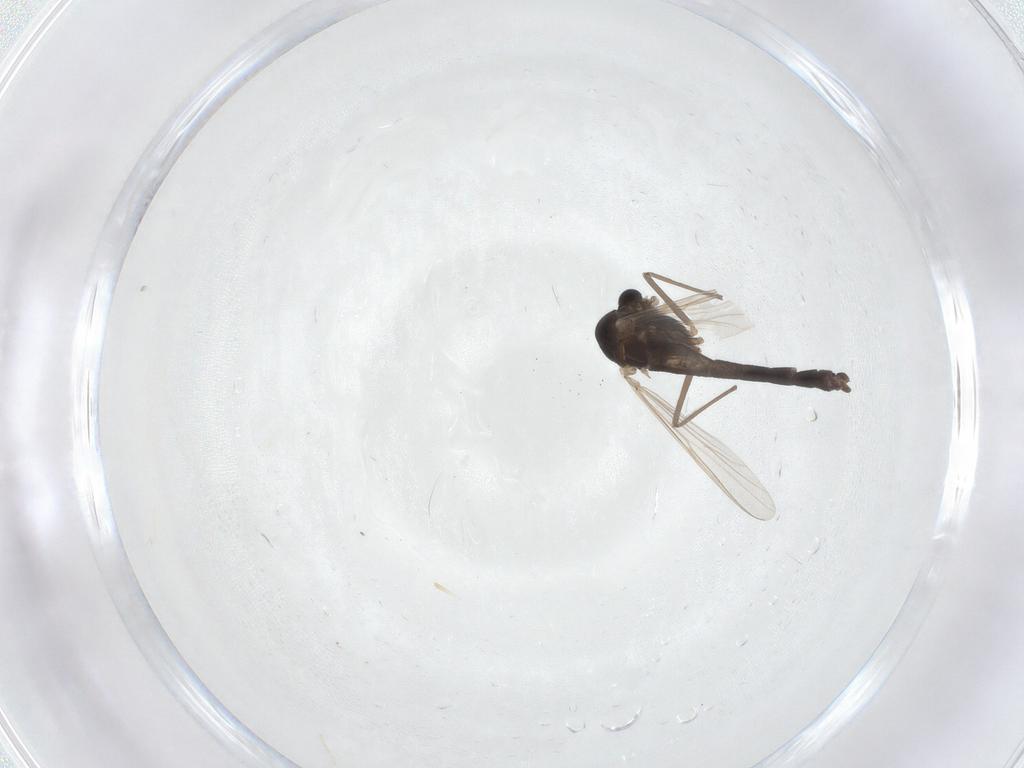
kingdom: Animalia
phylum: Arthropoda
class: Insecta
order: Diptera
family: Chironomidae
